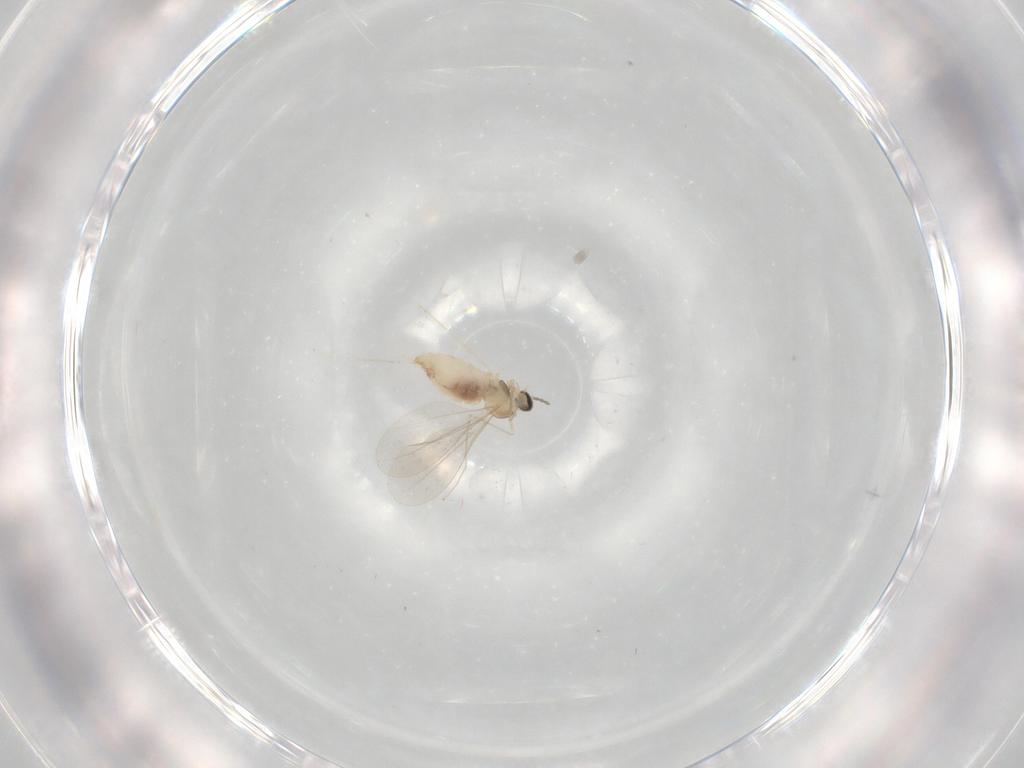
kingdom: Animalia
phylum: Arthropoda
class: Insecta
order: Diptera
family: Cecidomyiidae
